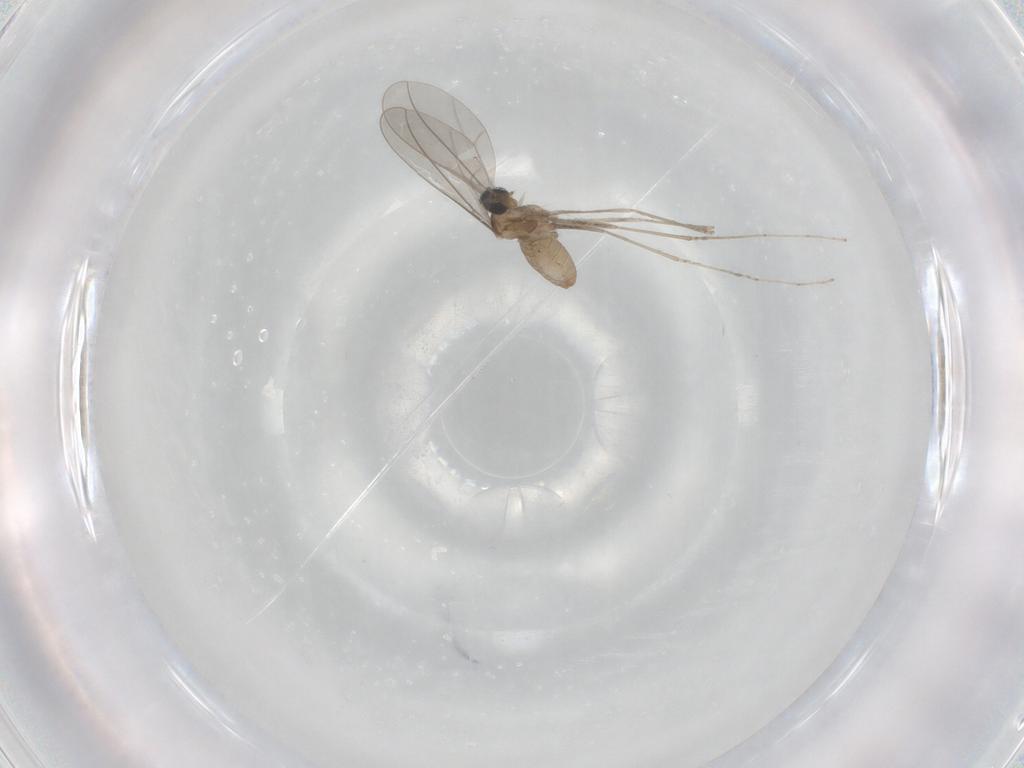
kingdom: Animalia
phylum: Arthropoda
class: Insecta
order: Diptera
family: Cecidomyiidae
